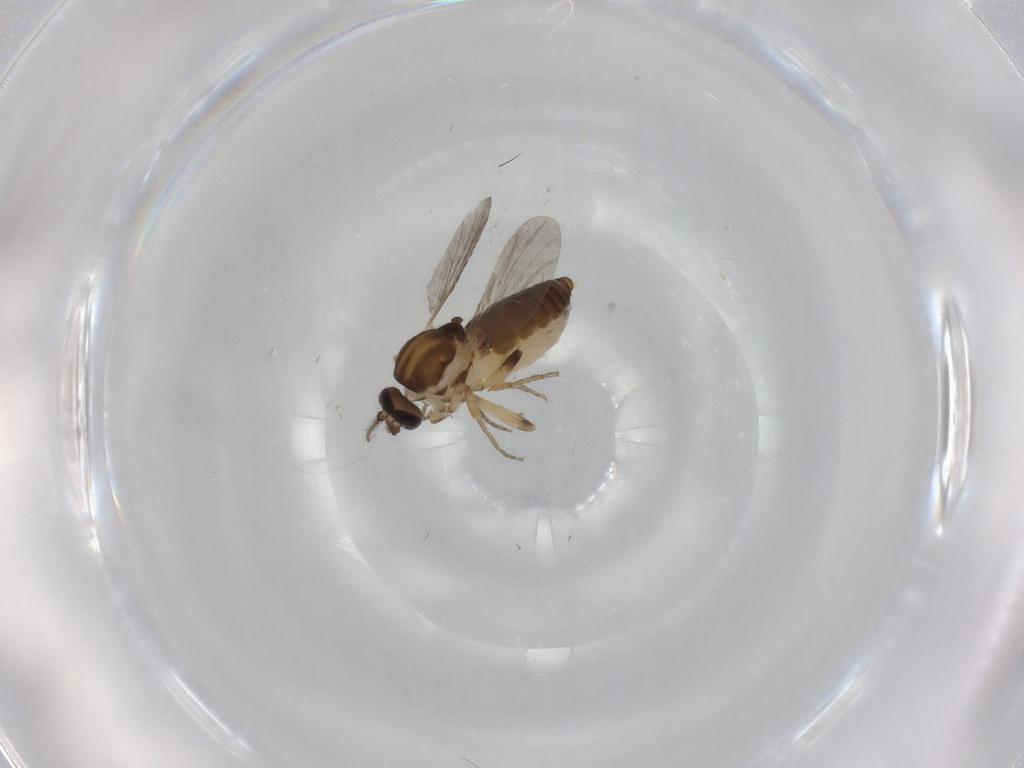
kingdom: Animalia
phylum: Arthropoda
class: Insecta
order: Diptera
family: Ceratopogonidae
